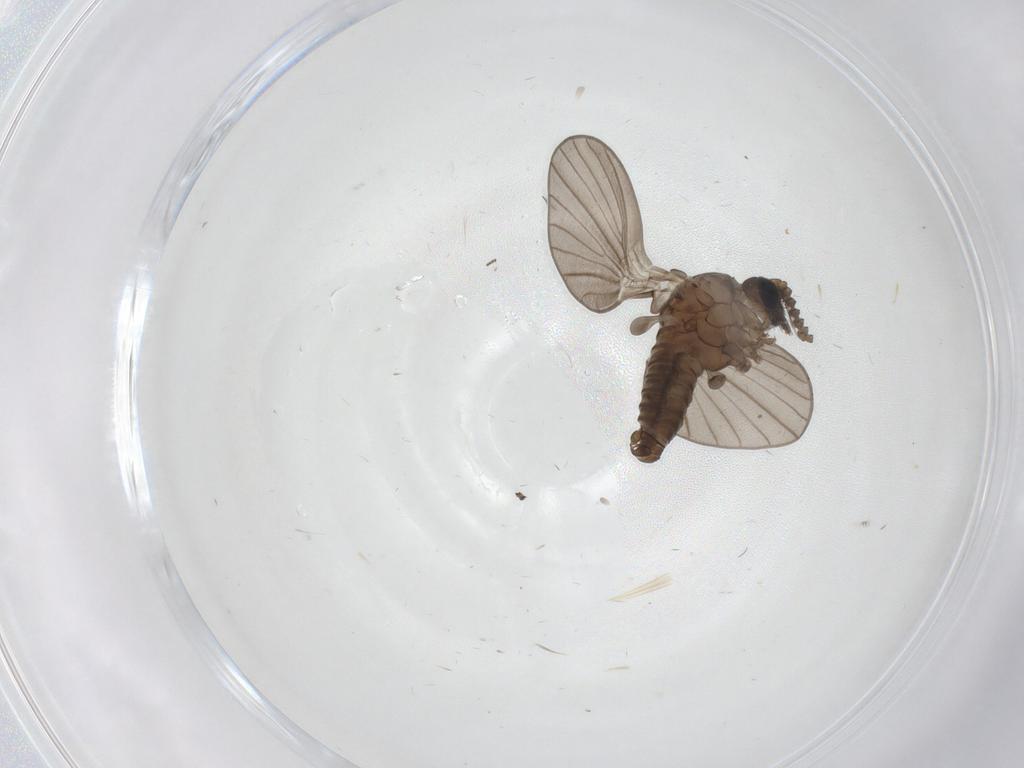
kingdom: Animalia
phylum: Arthropoda
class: Insecta
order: Diptera
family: Psychodidae
